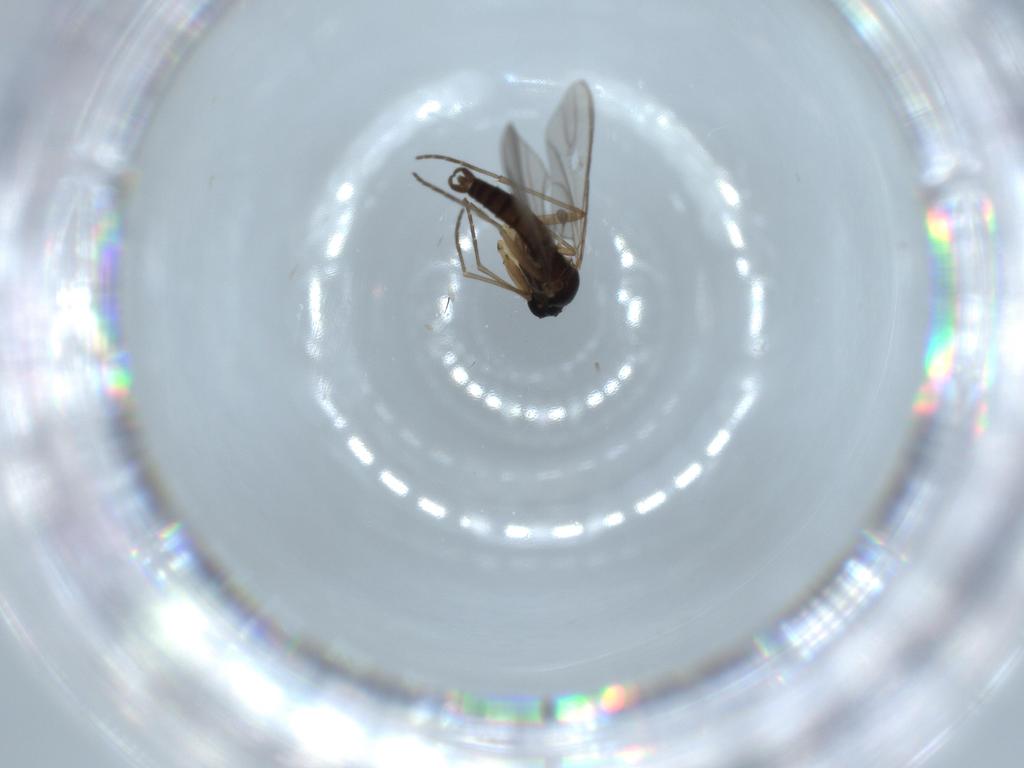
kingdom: Animalia
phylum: Arthropoda
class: Insecta
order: Diptera
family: Sciaridae
